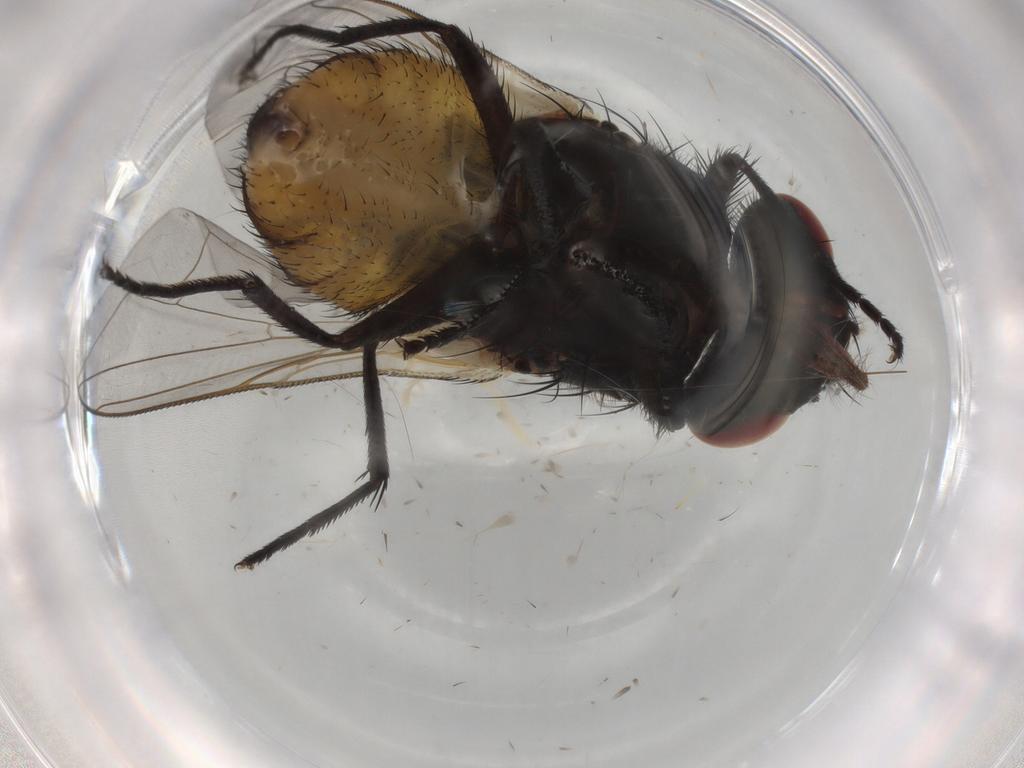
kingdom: Animalia
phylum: Arthropoda
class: Insecta
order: Diptera
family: Glossinidae
